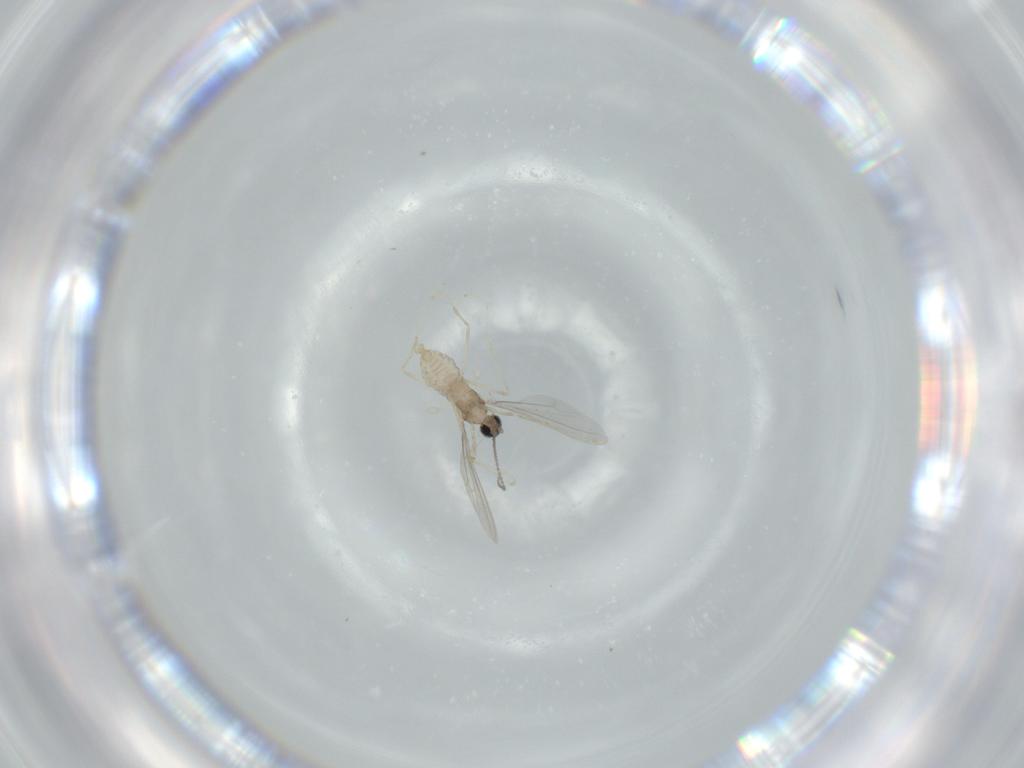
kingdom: Animalia
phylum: Arthropoda
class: Insecta
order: Diptera
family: Cecidomyiidae
